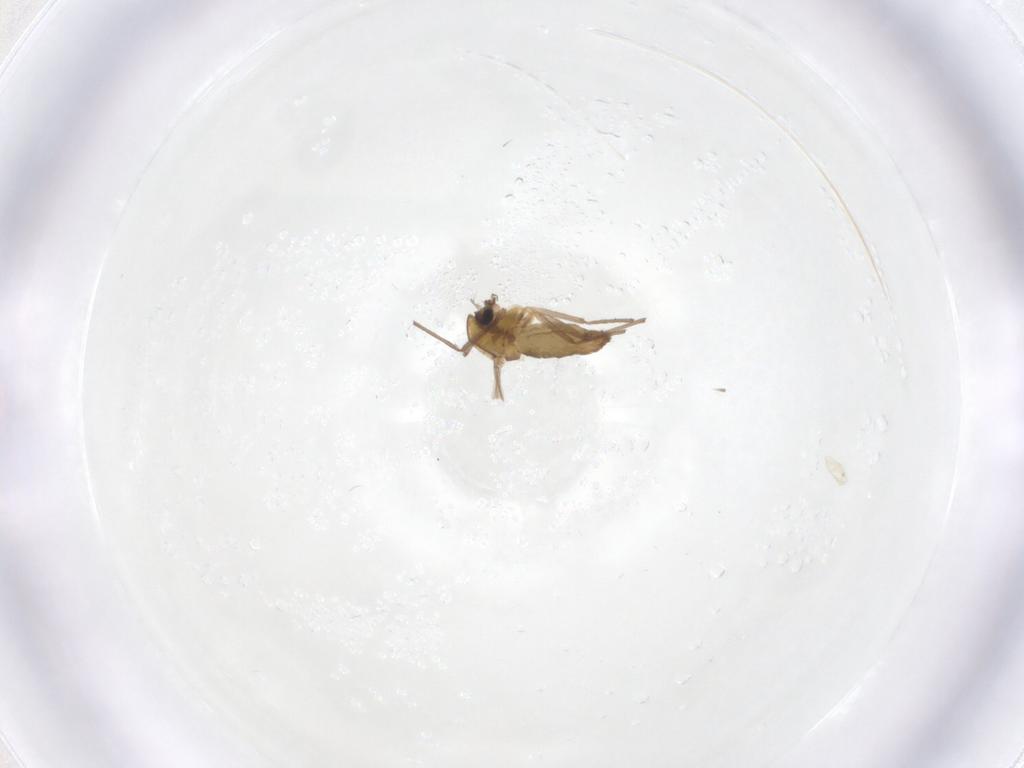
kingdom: Animalia
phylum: Arthropoda
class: Insecta
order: Diptera
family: Chironomidae
